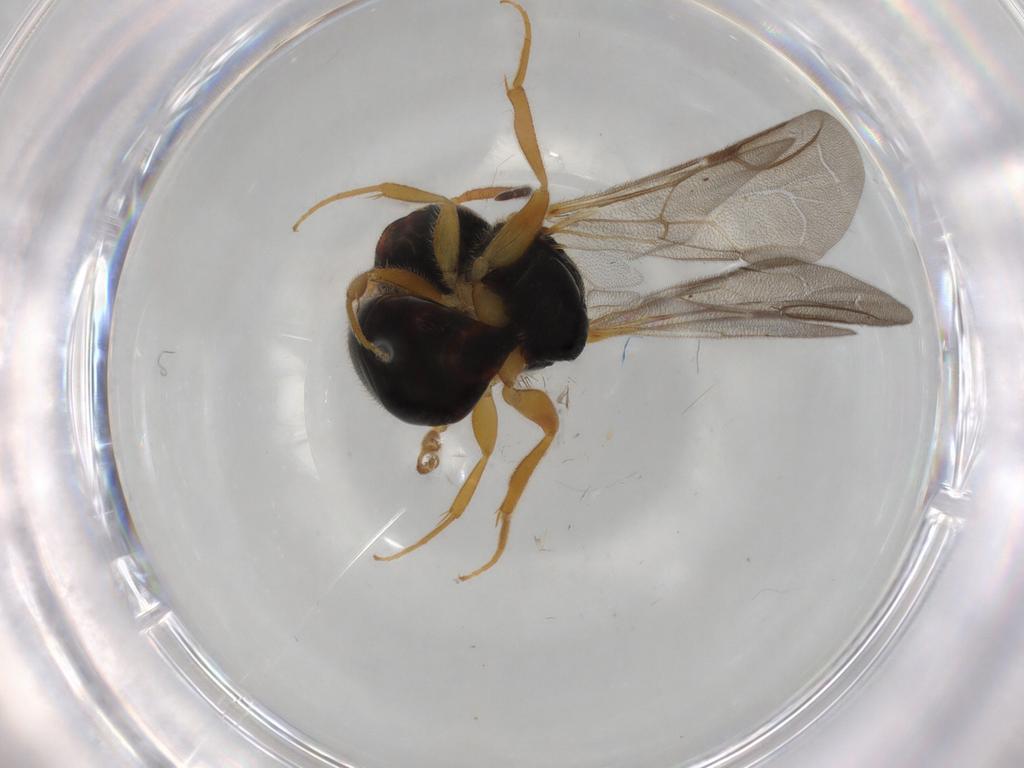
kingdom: Animalia
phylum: Arthropoda
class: Insecta
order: Hymenoptera
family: Bethylidae
